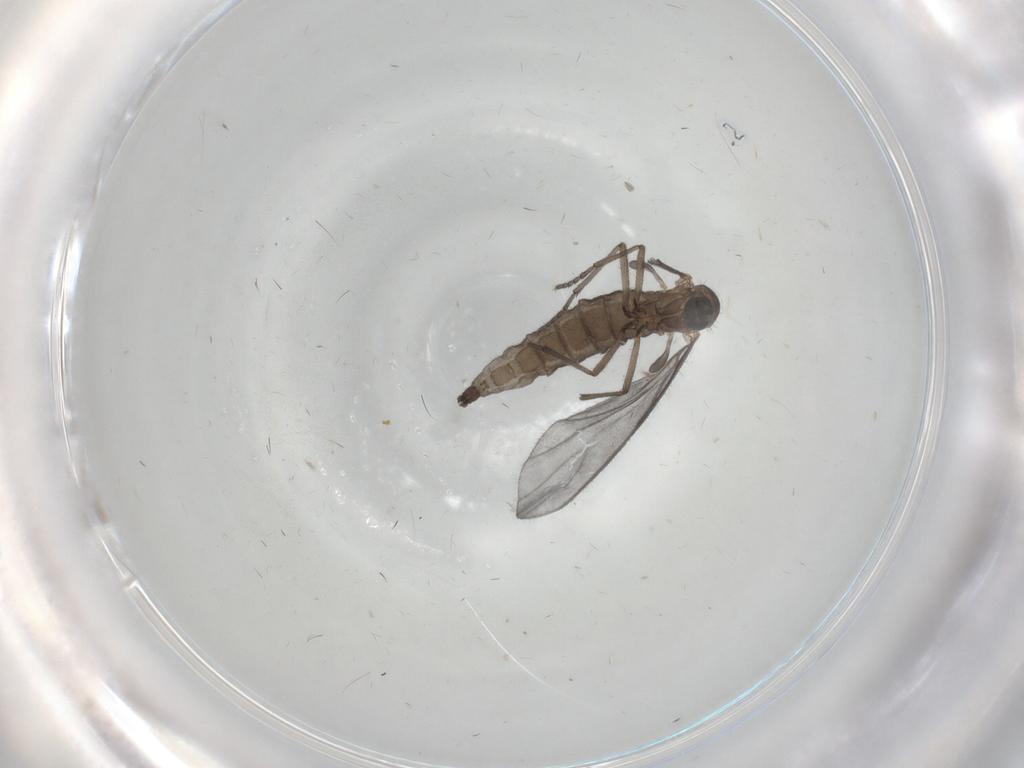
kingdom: Animalia
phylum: Arthropoda
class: Insecta
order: Diptera
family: Sciaridae
